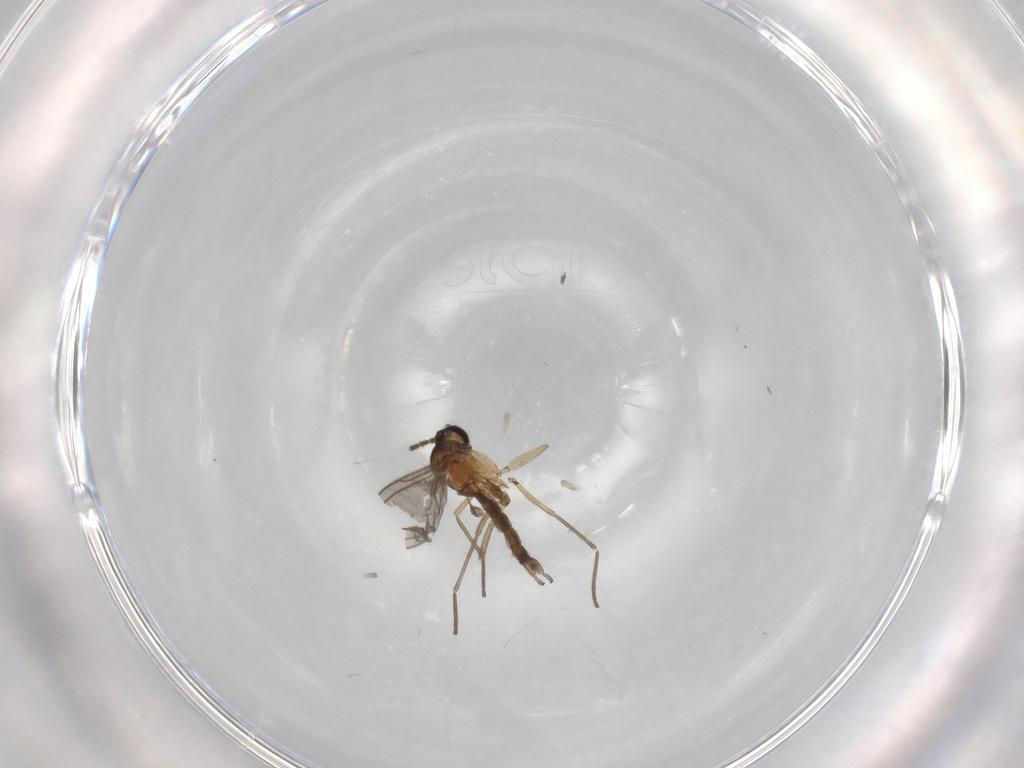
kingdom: Animalia
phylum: Arthropoda
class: Insecta
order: Diptera
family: Sciaridae
